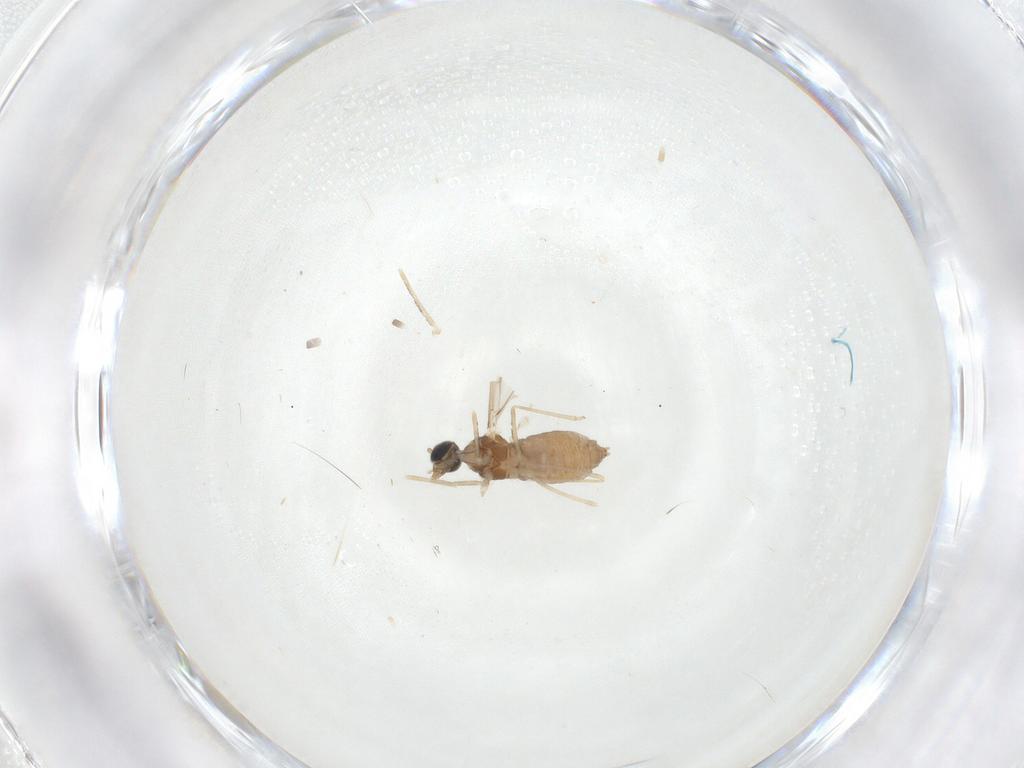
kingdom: Animalia
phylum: Arthropoda
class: Insecta
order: Diptera
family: Cecidomyiidae
